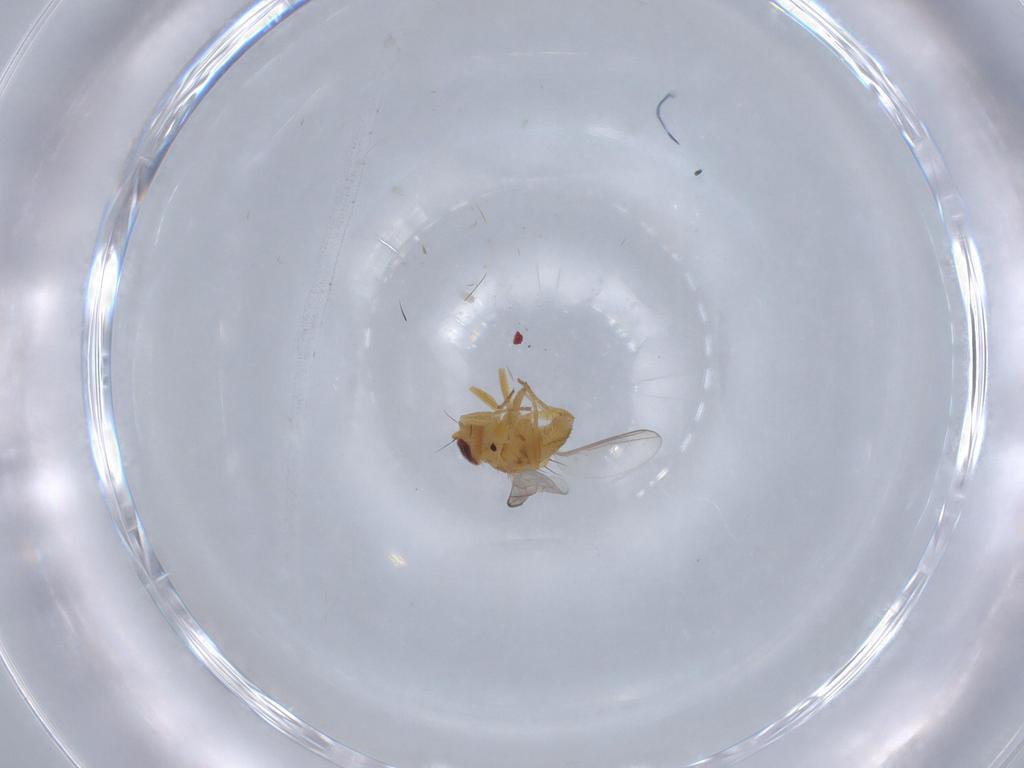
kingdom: Animalia
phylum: Arthropoda
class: Insecta
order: Diptera
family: Chloropidae
